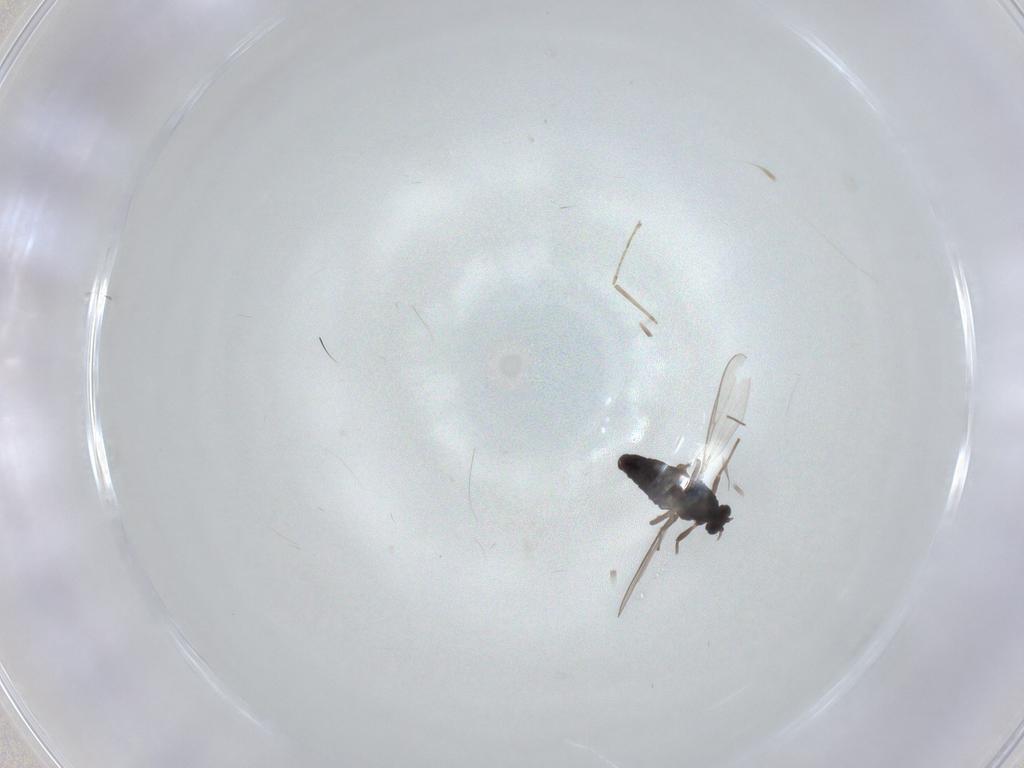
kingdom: Animalia
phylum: Arthropoda
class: Insecta
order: Diptera
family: Chironomidae
